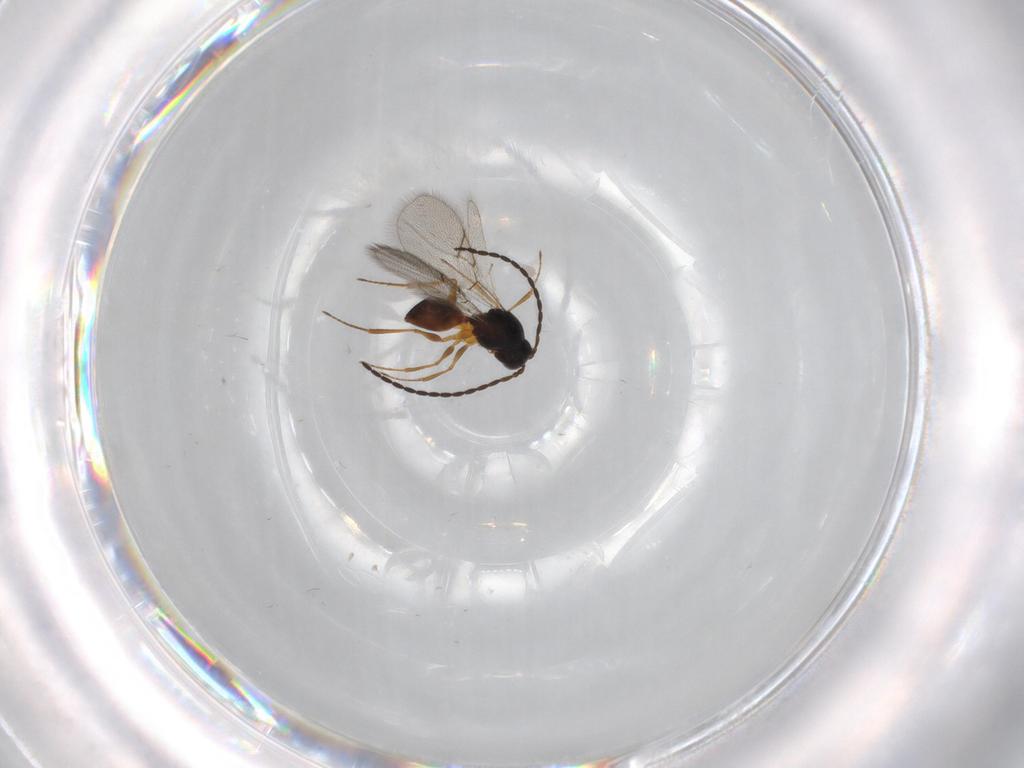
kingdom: Animalia
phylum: Arthropoda
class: Insecta
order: Hymenoptera
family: Figitidae
